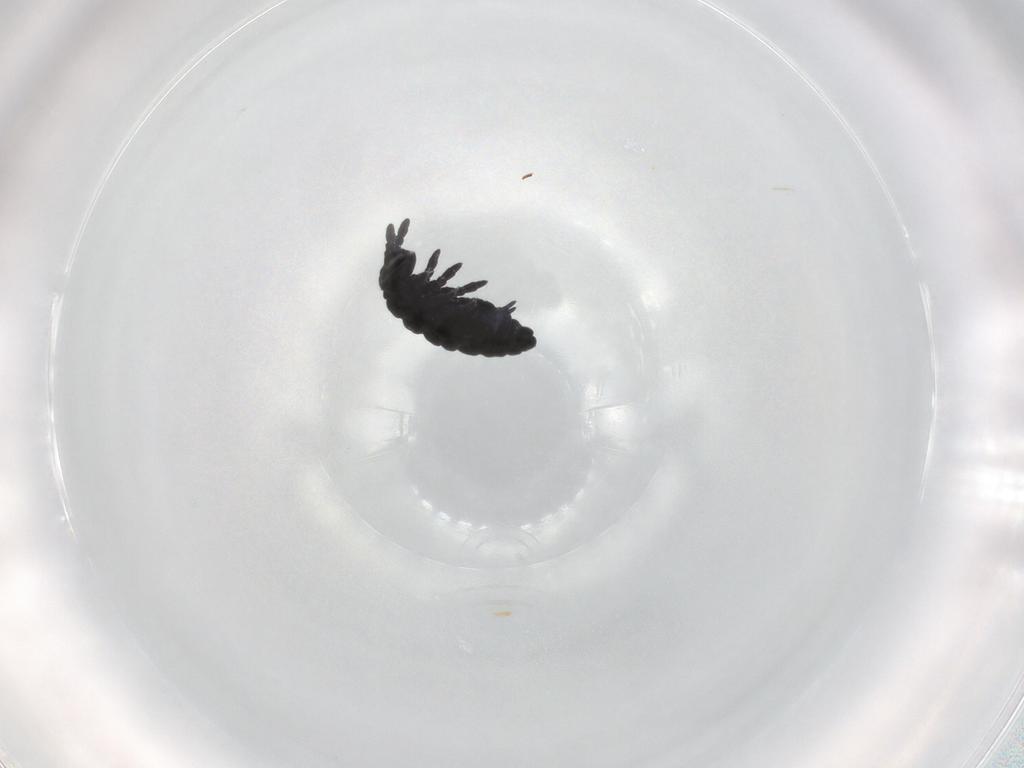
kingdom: Animalia
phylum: Arthropoda
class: Collembola
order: Poduromorpha
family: Hypogastruridae
